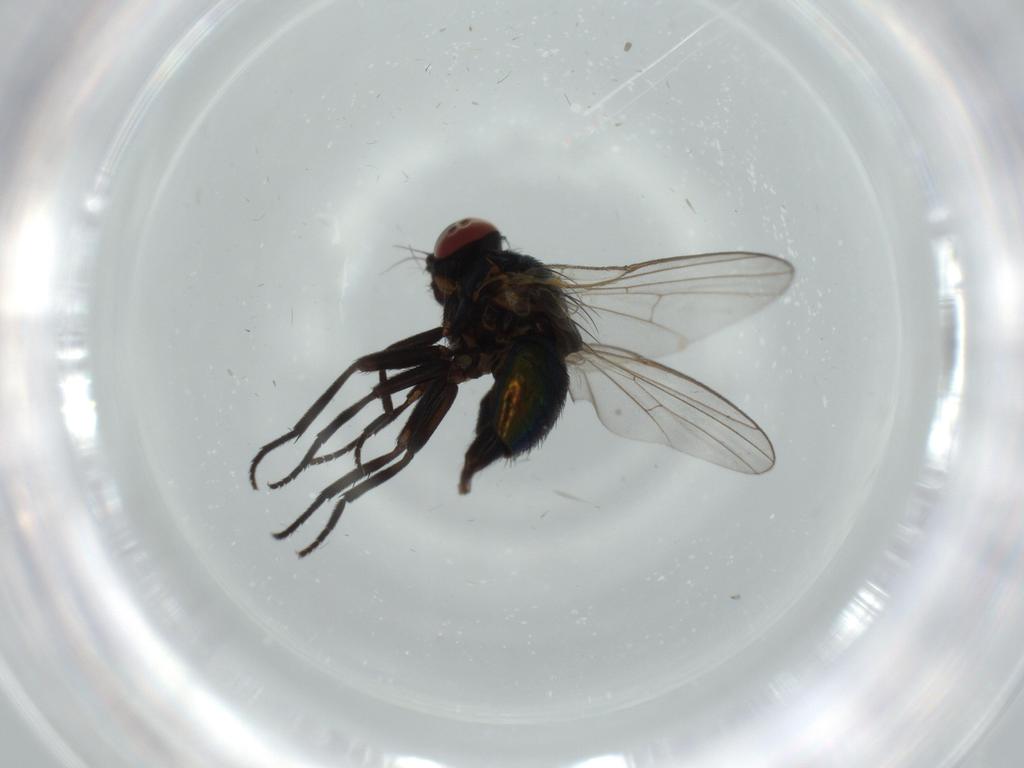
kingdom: Animalia
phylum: Arthropoda
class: Insecta
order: Diptera
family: Agromyzidae
